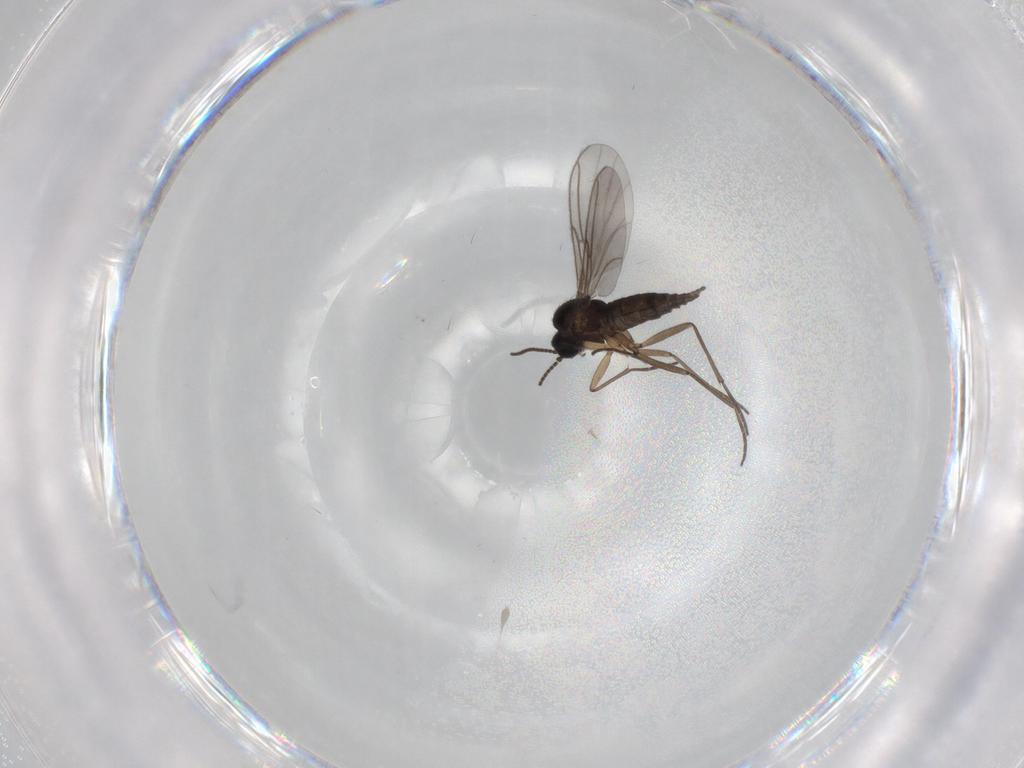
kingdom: Animalia
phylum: Arthropoda
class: Insecta
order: Diptera
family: Sciaridae
